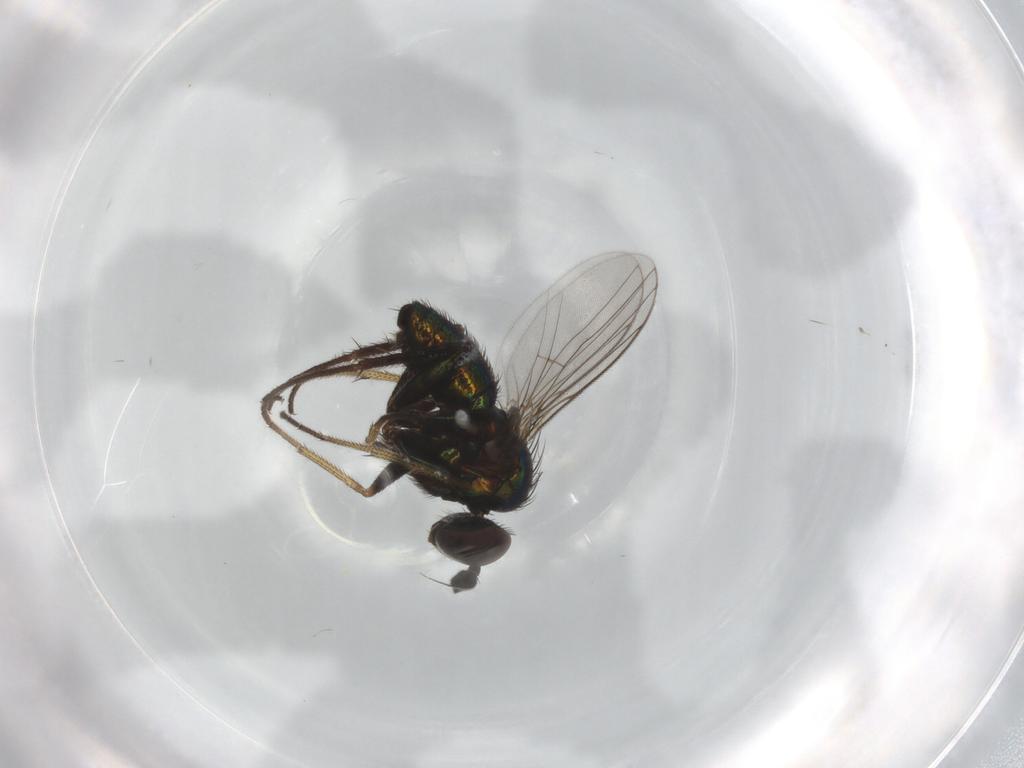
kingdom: Animalia
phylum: Arthropoda
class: Insecta
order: Diptera
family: Dolichopodidae
